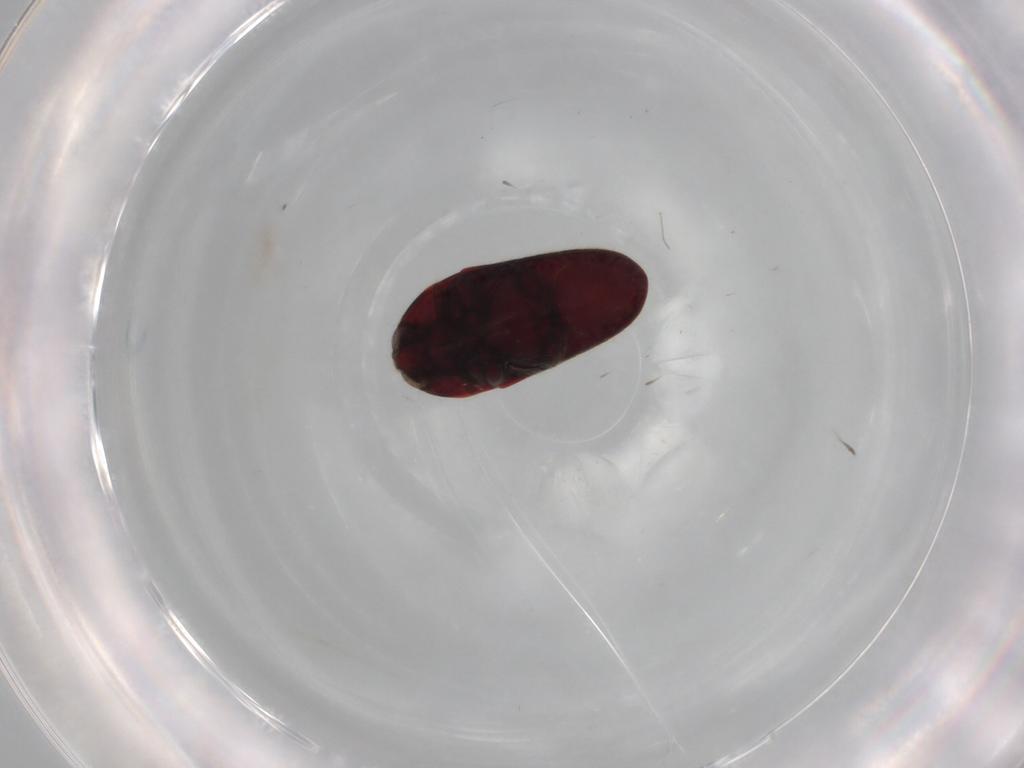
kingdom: Animalia
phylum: Arthropoda
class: Insecta
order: Coleoptera
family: Throscidae
